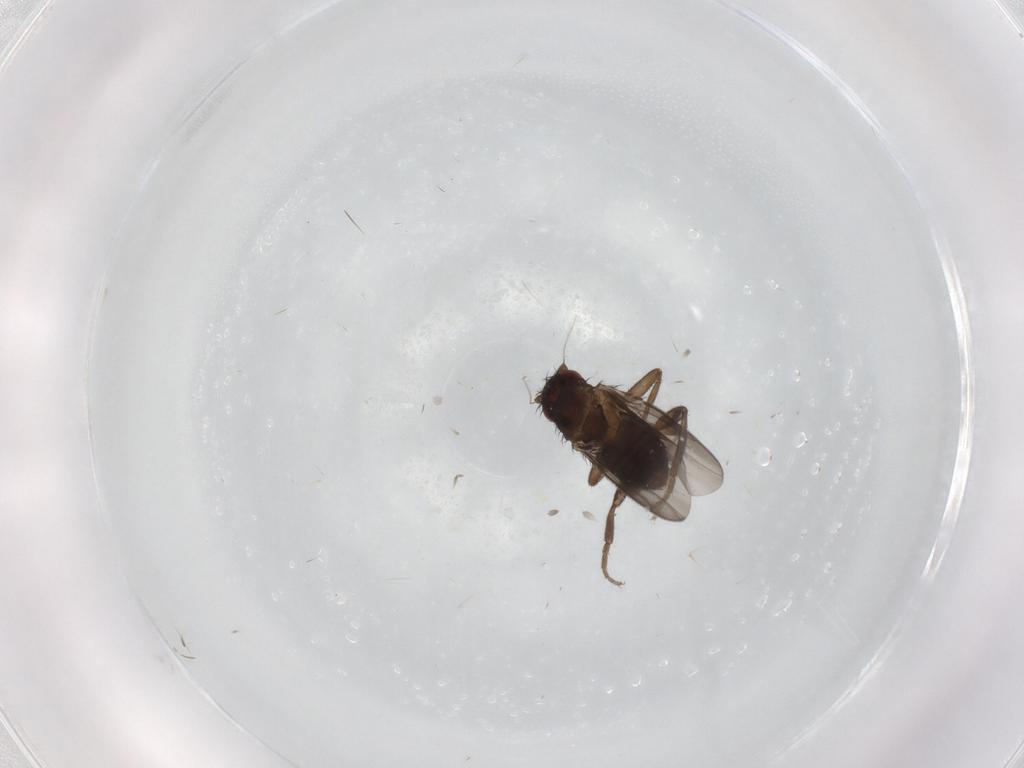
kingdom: Animalia
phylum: Arthropoda
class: Insecta
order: Diptera
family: Sphaeroceridae
